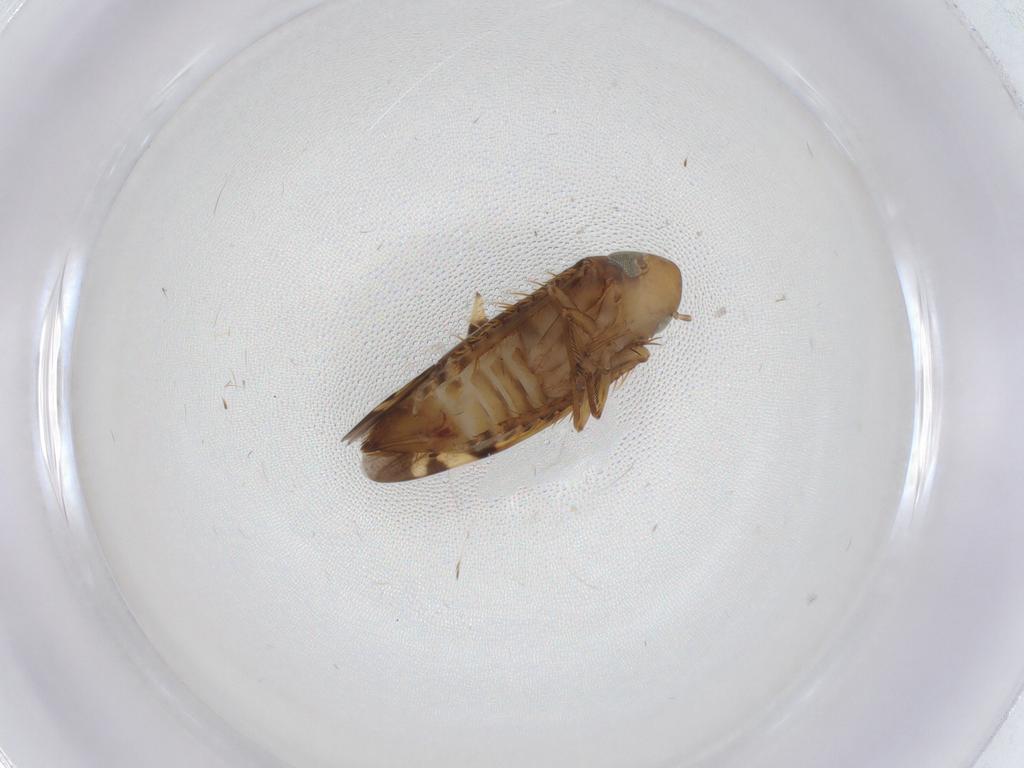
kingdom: Animalia
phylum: Arthropoda
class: Insecta
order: Hemiptera
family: Cicadellidae
